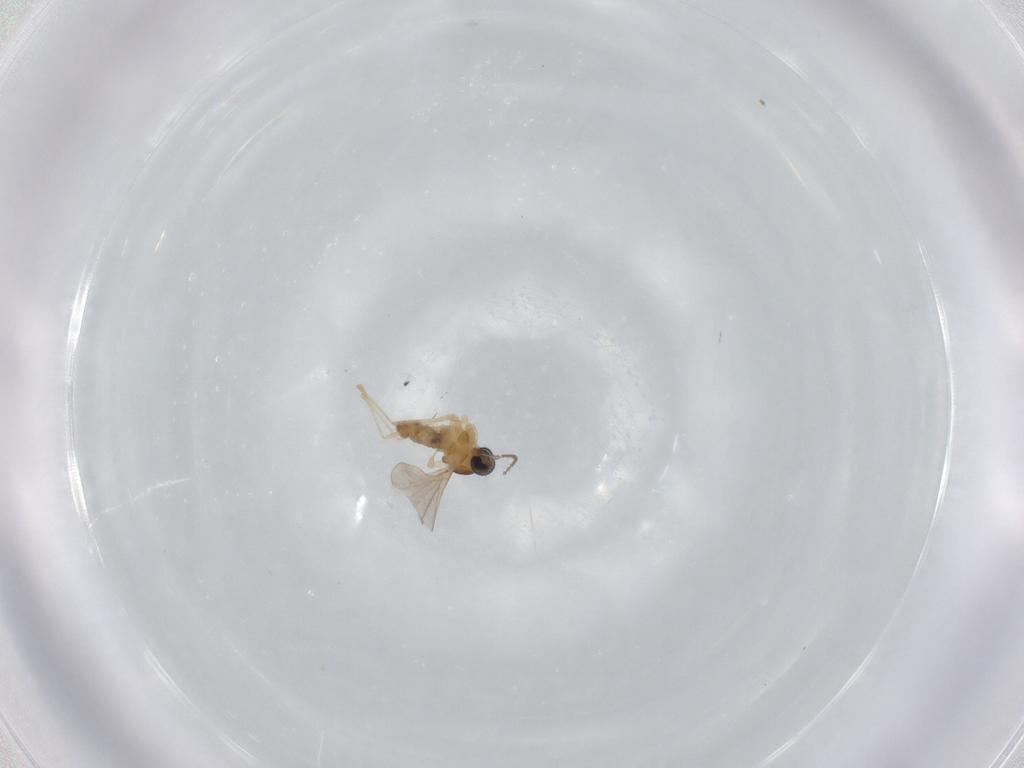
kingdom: Animalia
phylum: Arthropoda
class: Insecta
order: Diptera
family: Cecidomyiidae
